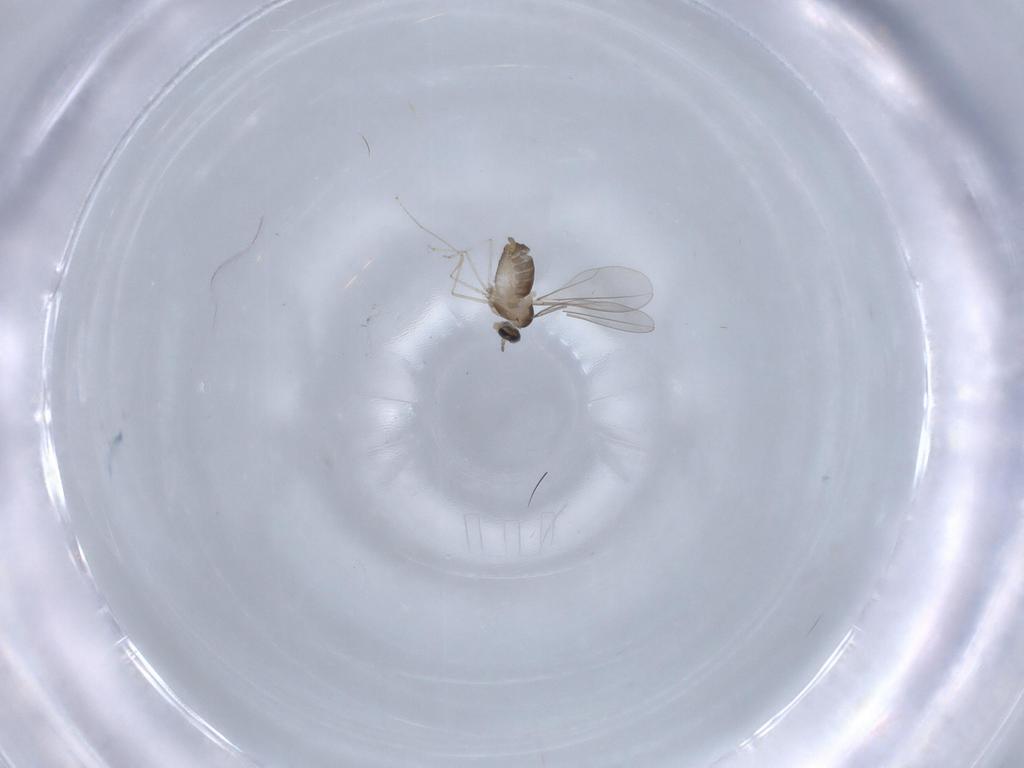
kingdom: Animalia
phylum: Arthropoda
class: Insecta
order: Diptera
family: Cecidomyiidae
